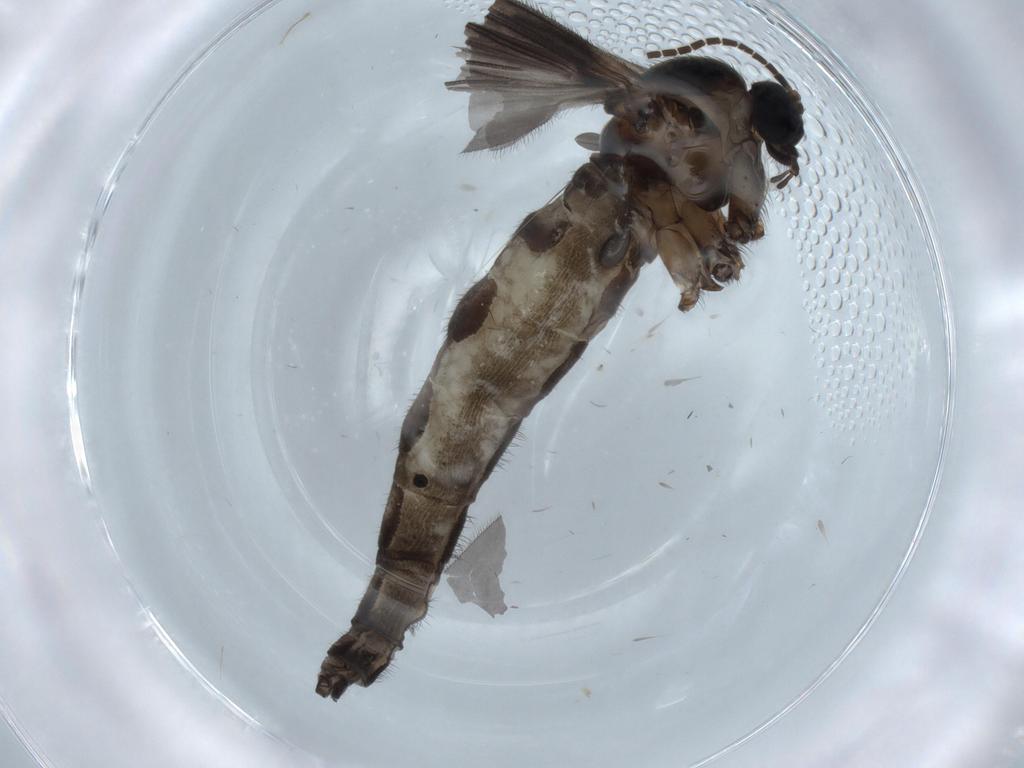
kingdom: Animalia
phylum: Arthropoda
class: Insecta
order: Diptera
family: Sciaridae
